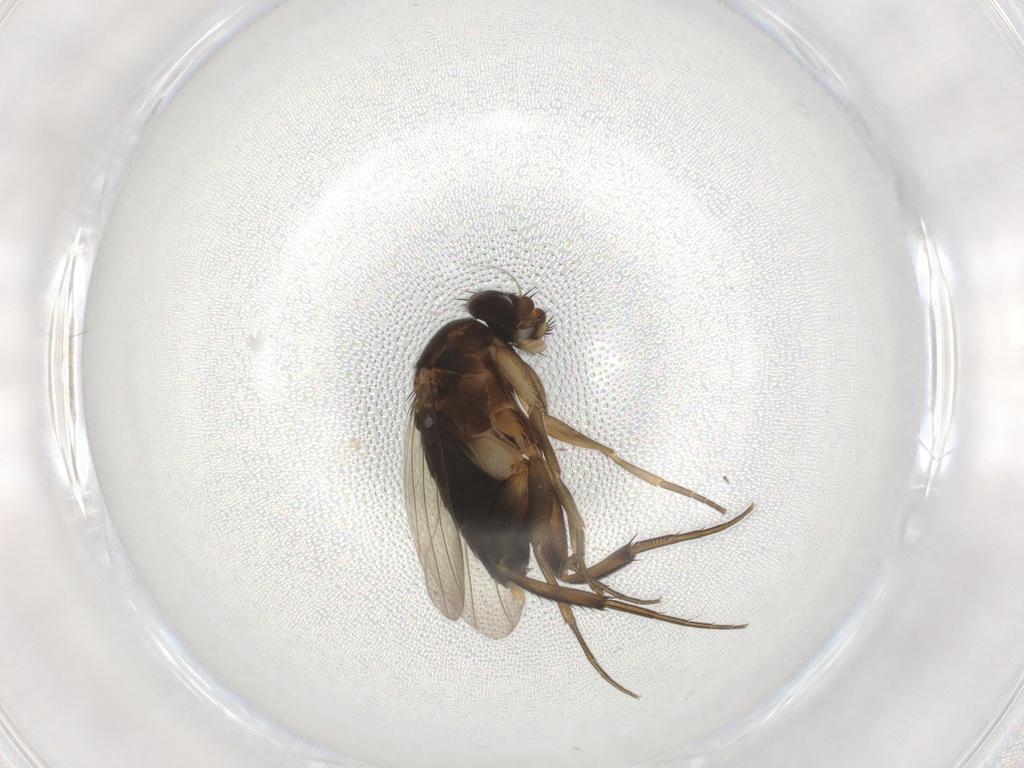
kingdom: Animalia
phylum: Arthropoda
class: Insecta
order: Diptera
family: Phoridae
